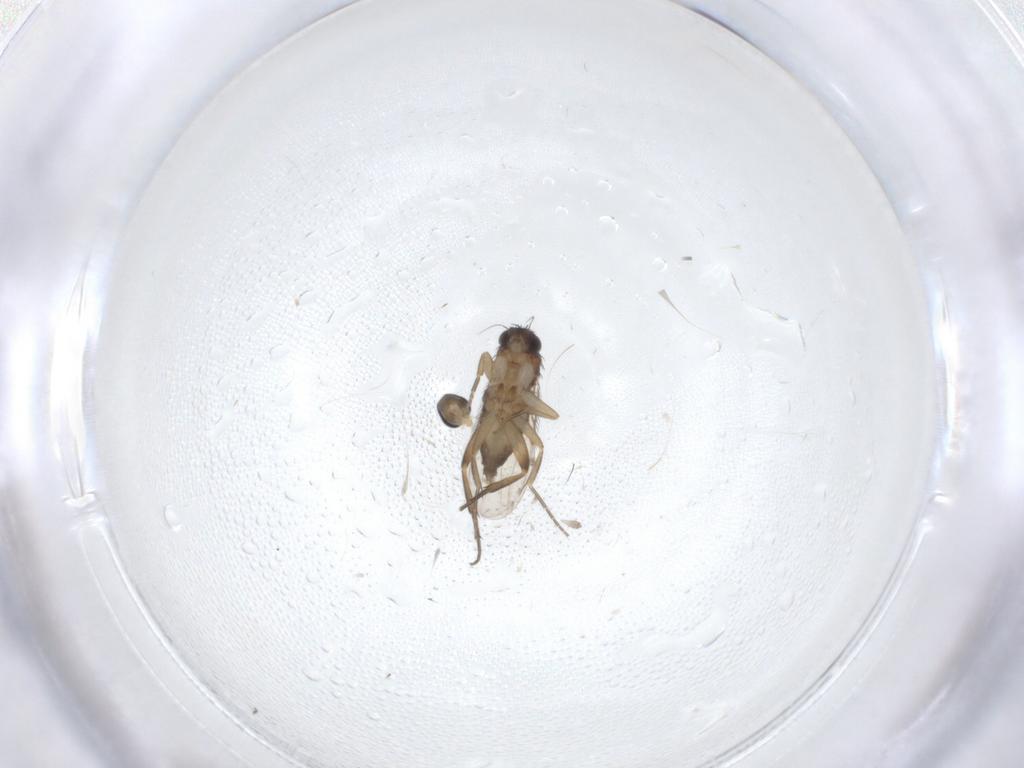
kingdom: Animalia
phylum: Arthropoda
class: Insecta
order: Diptera
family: Phoridae
